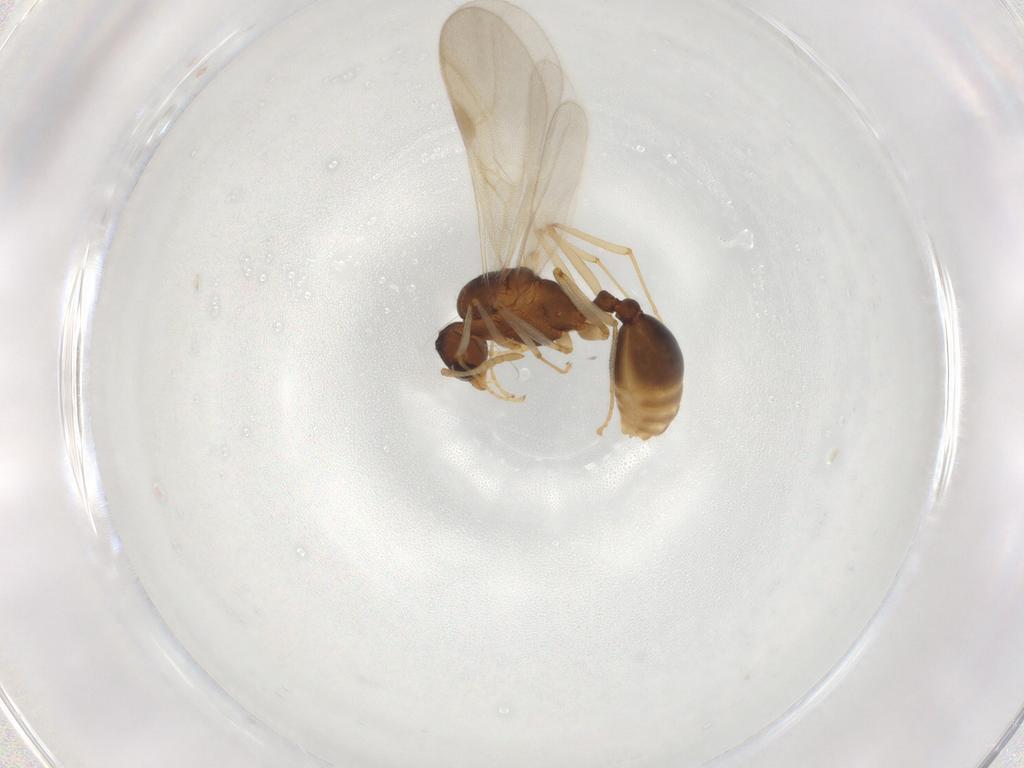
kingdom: Animalia
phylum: Arthropoda
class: Insecta
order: Hymenoptera
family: Formicidae
